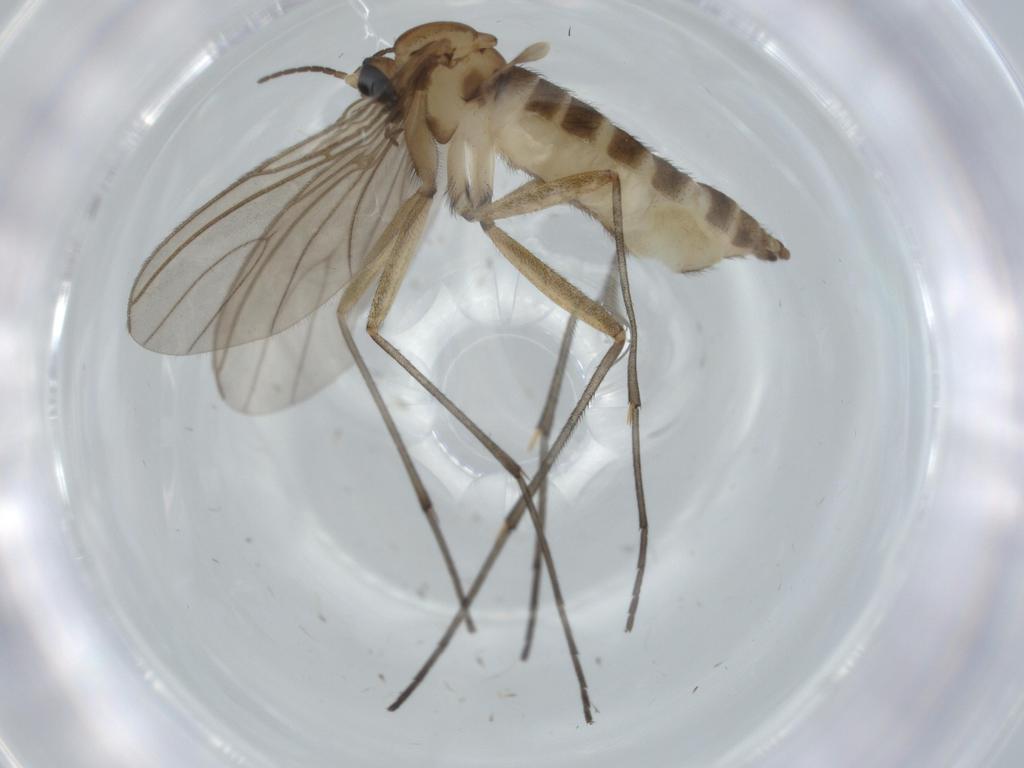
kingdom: Animalia
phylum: Arthropoda
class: Insecta
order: Diptera
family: Sciaridae
